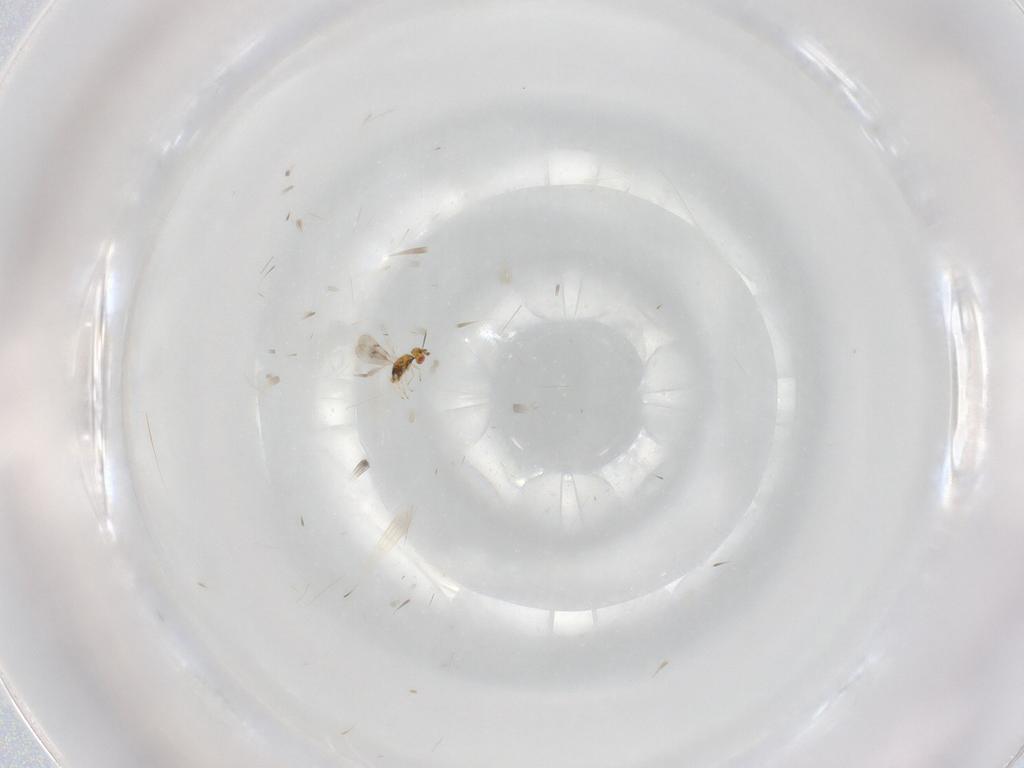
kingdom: Animalia
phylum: Arthropoda
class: Insecta
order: Hymenoptera
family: Eulophidae
